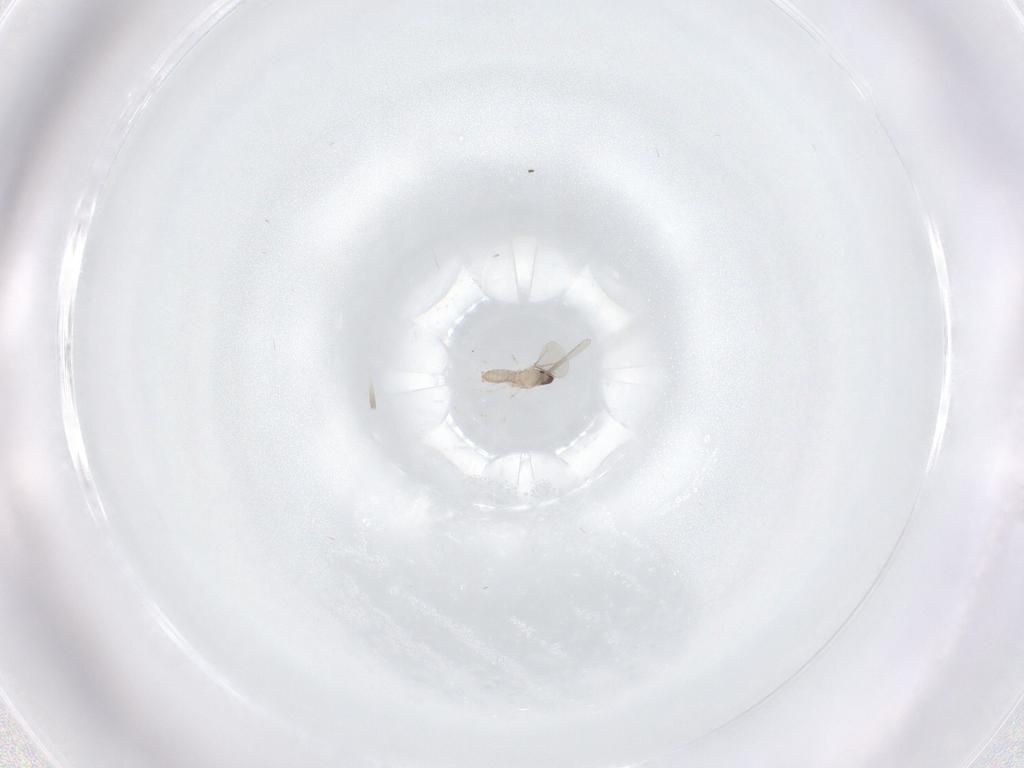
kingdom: Animalia
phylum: Arthropoda
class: Insecta
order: Diptera
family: Cecidomyiidae
